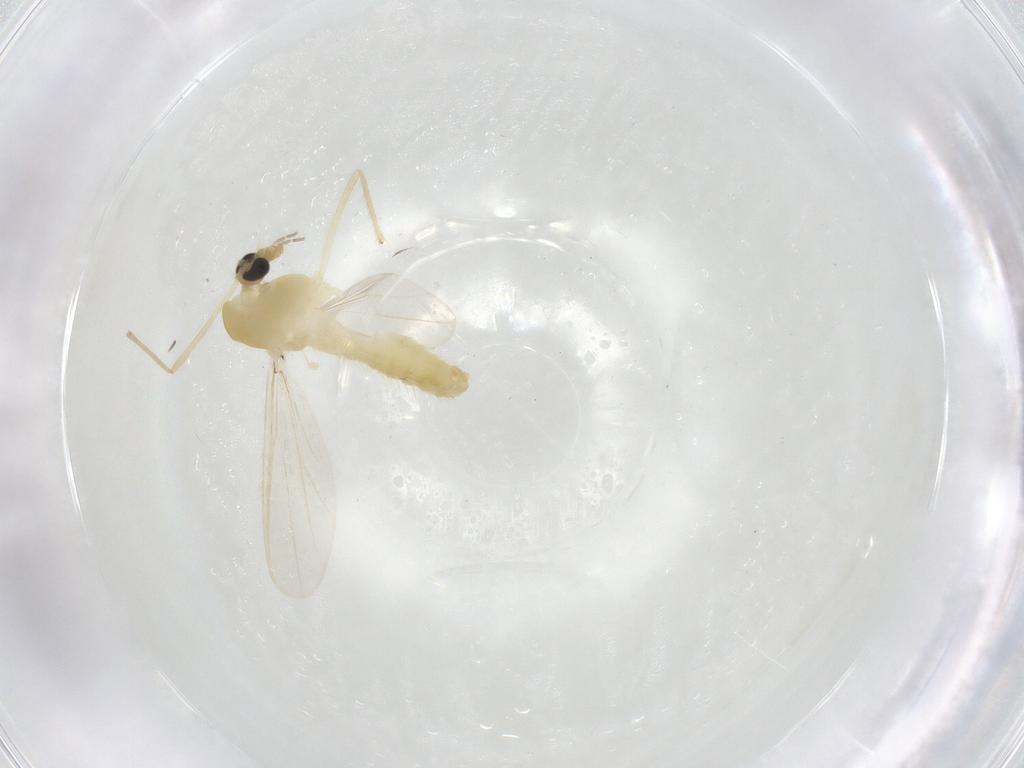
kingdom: Animalia
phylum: Arthropoda
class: Insecta
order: Diptera
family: Chironomidae
